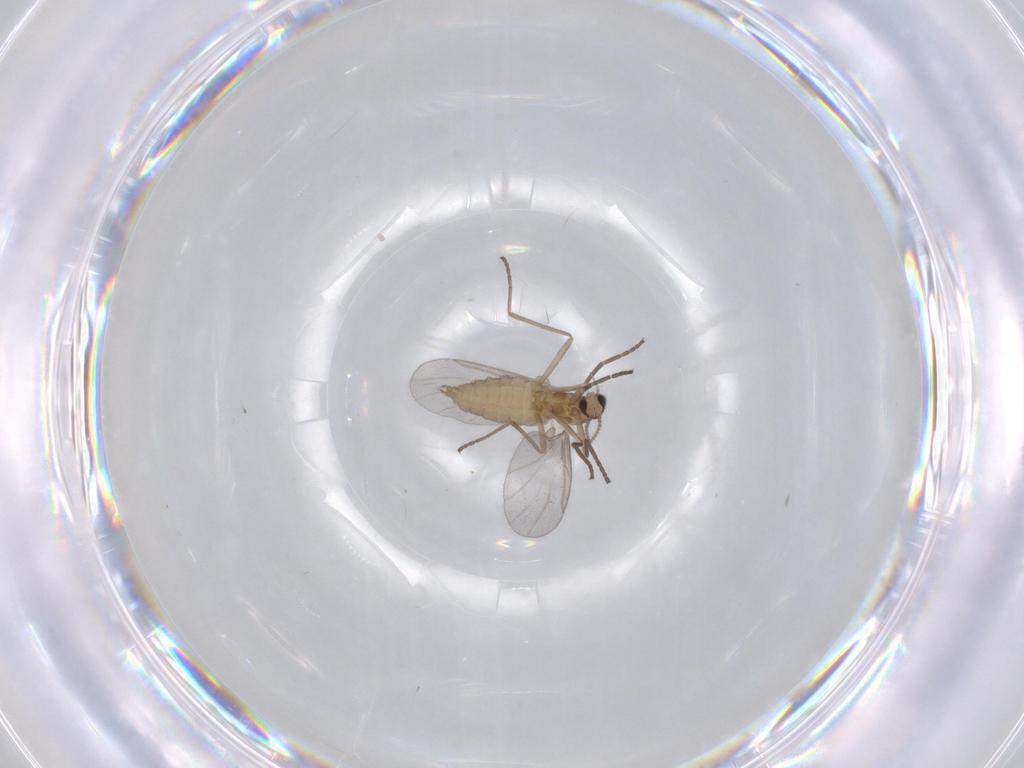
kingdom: Animalia
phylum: Arthropoda
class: Insecta
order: Diptera
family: Cecidomyiidae
